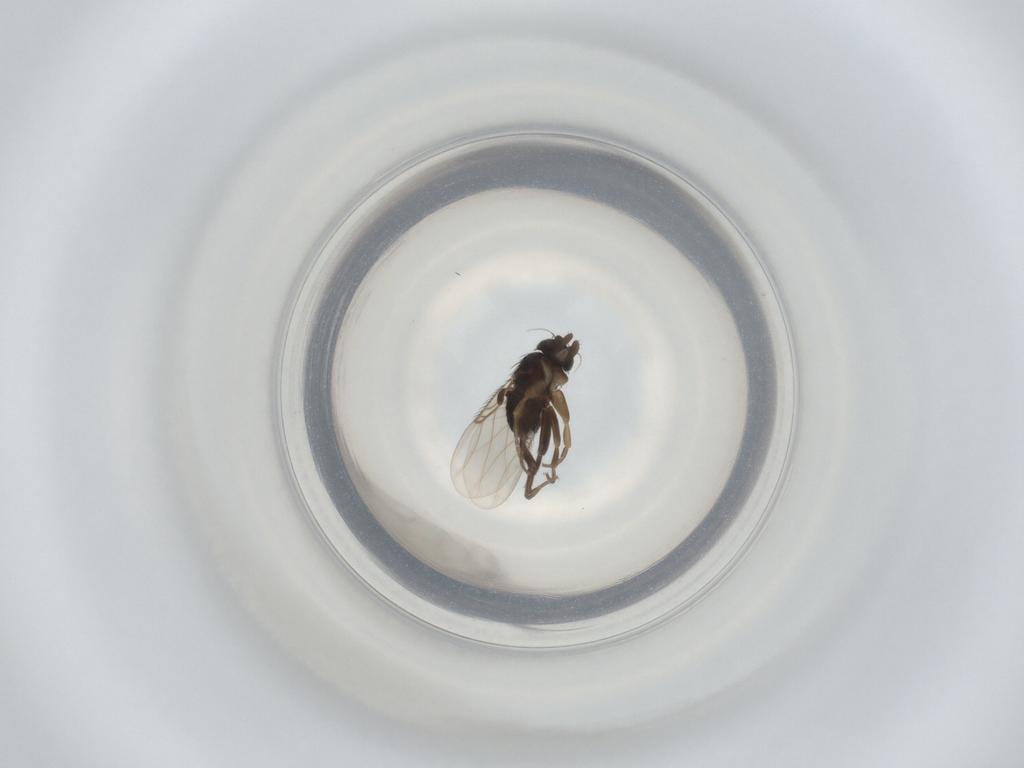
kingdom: Animalia
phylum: Arthropoda
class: Insecta
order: Diptera
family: Phoridae
